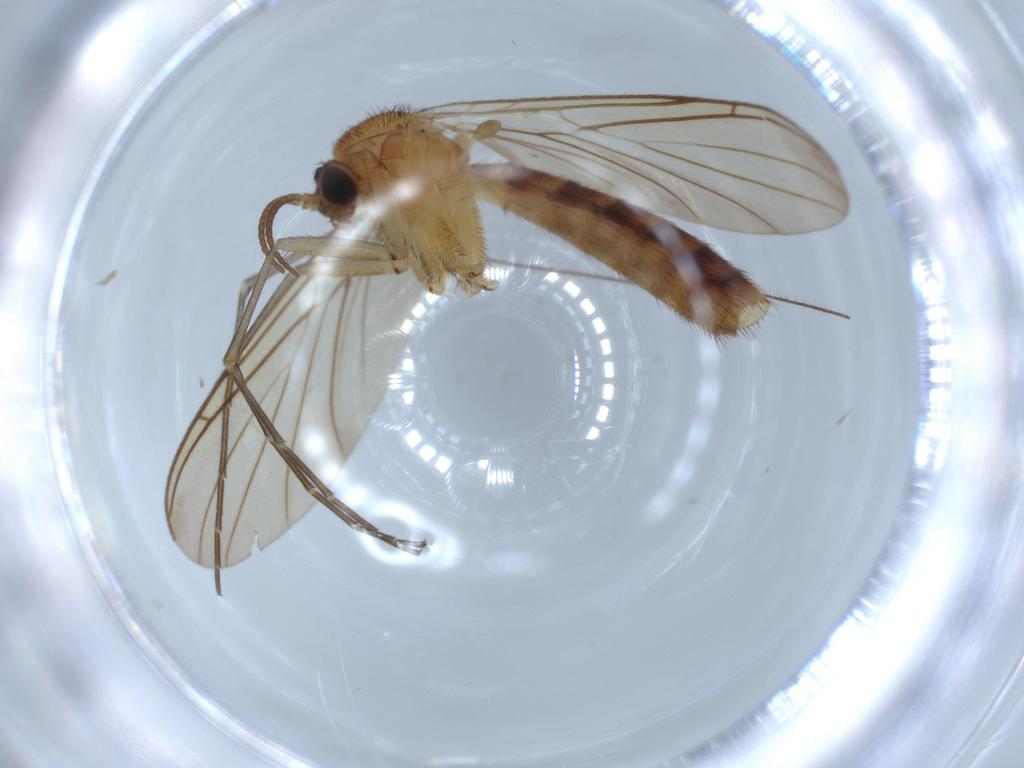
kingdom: Animalia
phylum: Arthropoda
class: Insecta
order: Diptera
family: Keroplatidae
